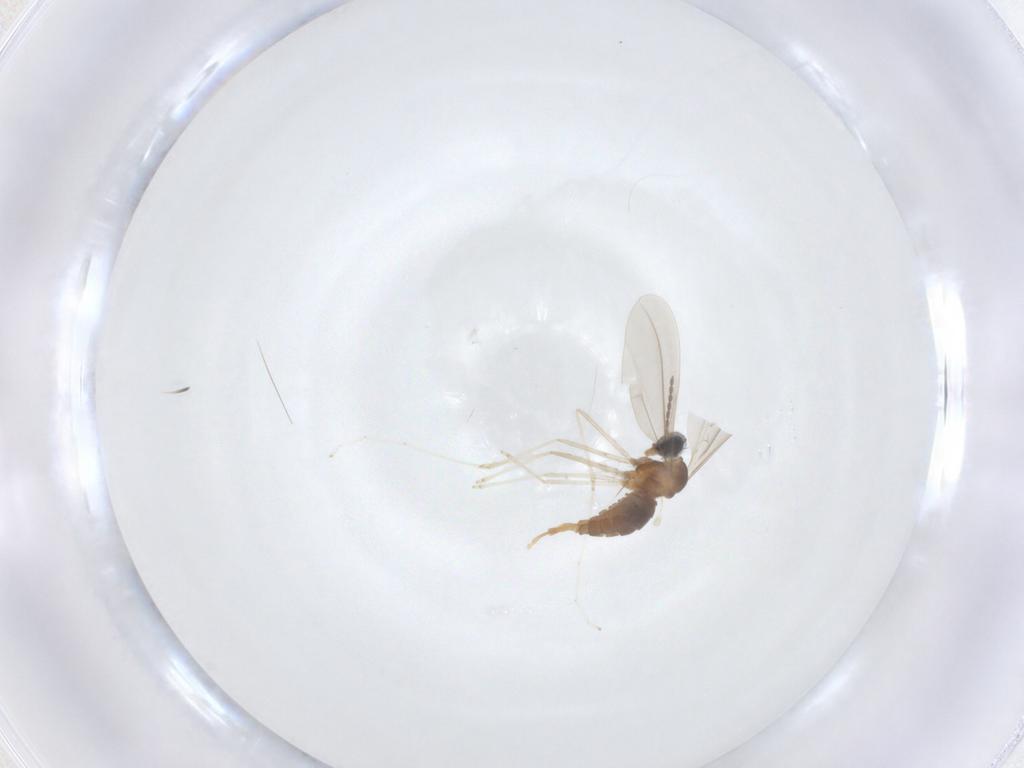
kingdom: Animalia
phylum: Arthropoda
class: Insecta
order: Diptera
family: Cecidomyiidae
